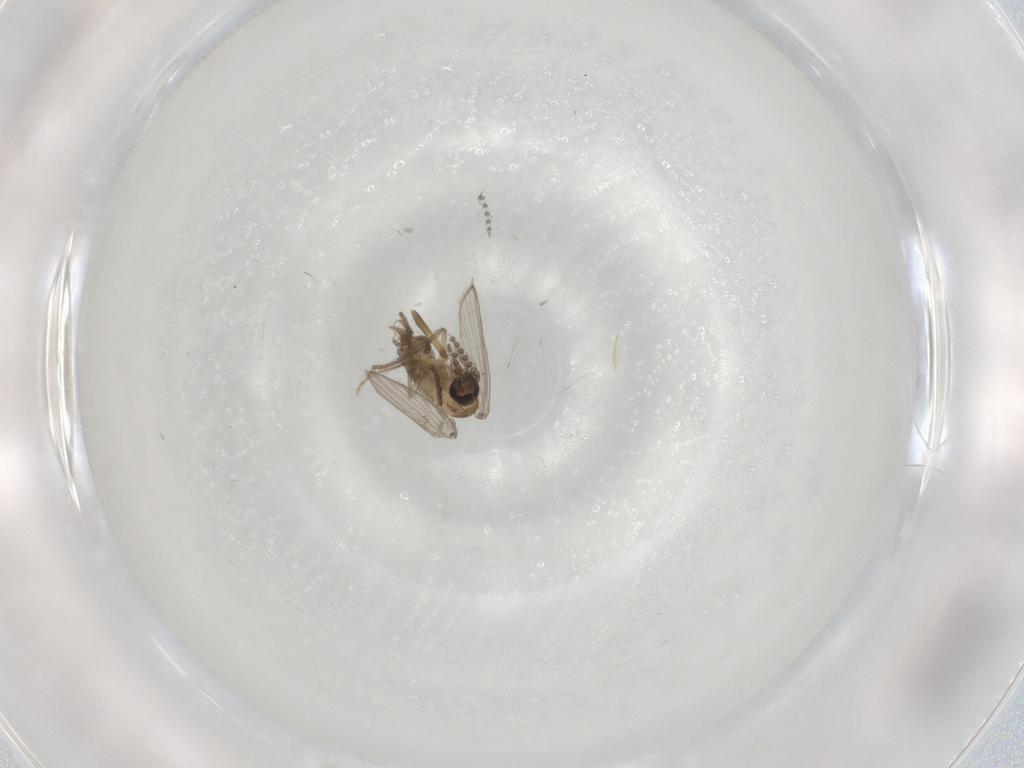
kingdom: Animalia
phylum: Arthropoda
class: Insecta
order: Diptera
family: Psychodidae
